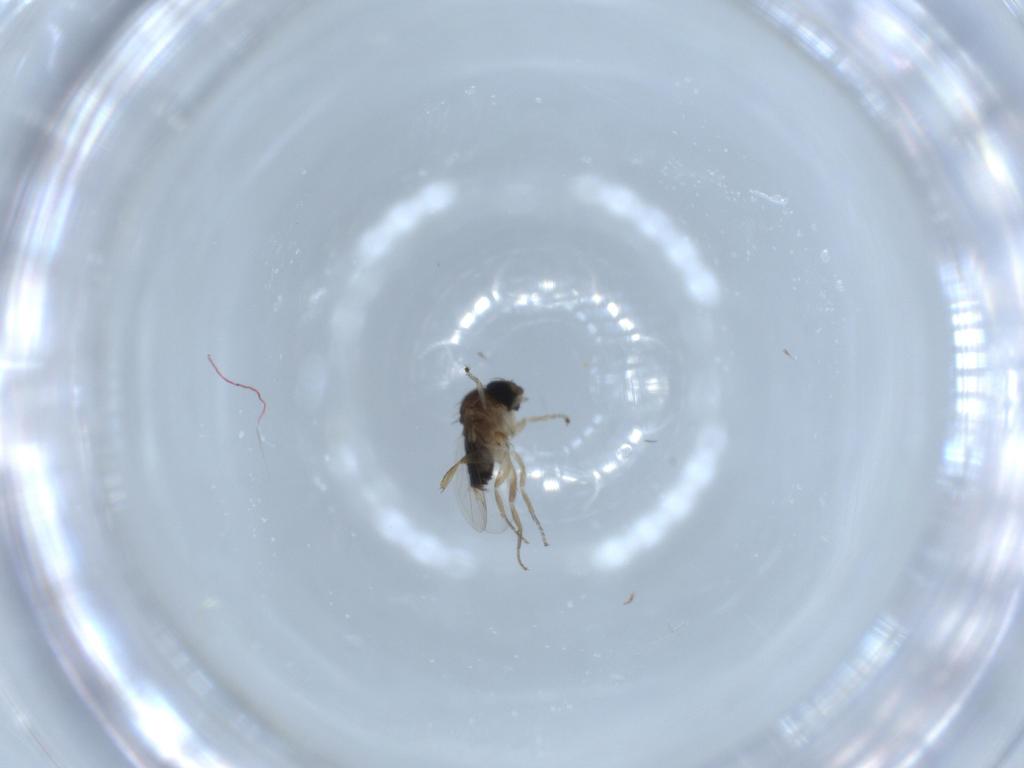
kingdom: Animalia
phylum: Arthropoda
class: Insecta
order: Diptera
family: Phoridae
